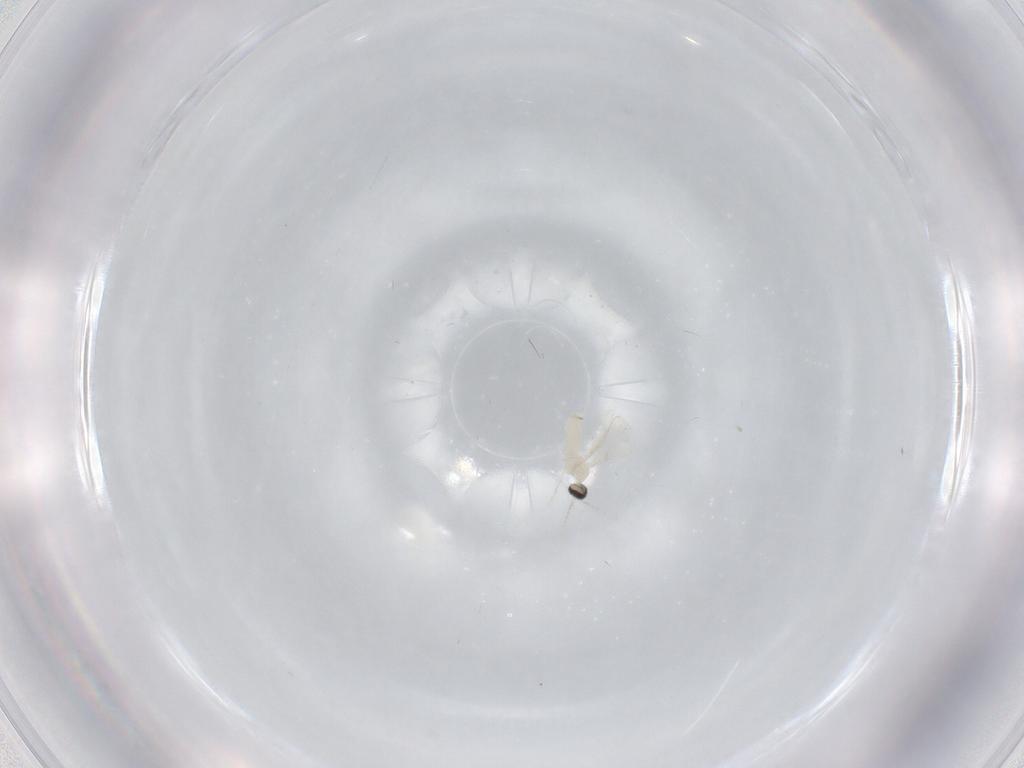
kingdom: Animalia
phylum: Arthropoda
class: Insecta
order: Diptera
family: Cecidomyiidae
